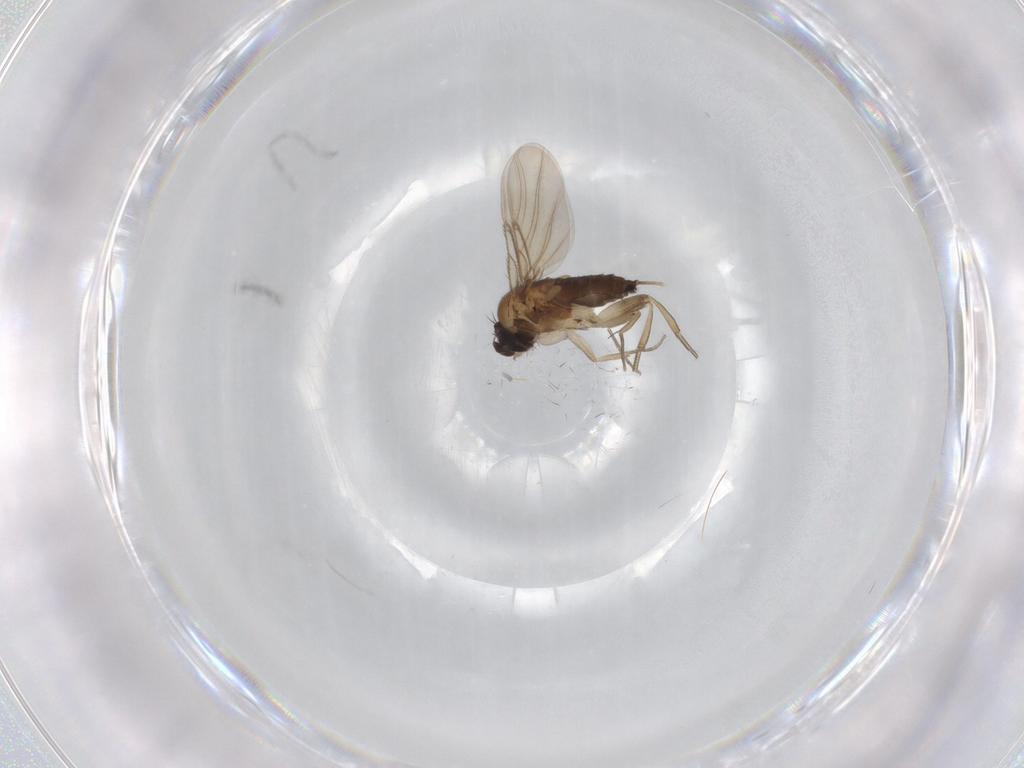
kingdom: Animalia
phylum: Arthropoda
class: Insecta
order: Diptera
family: Phoridae
